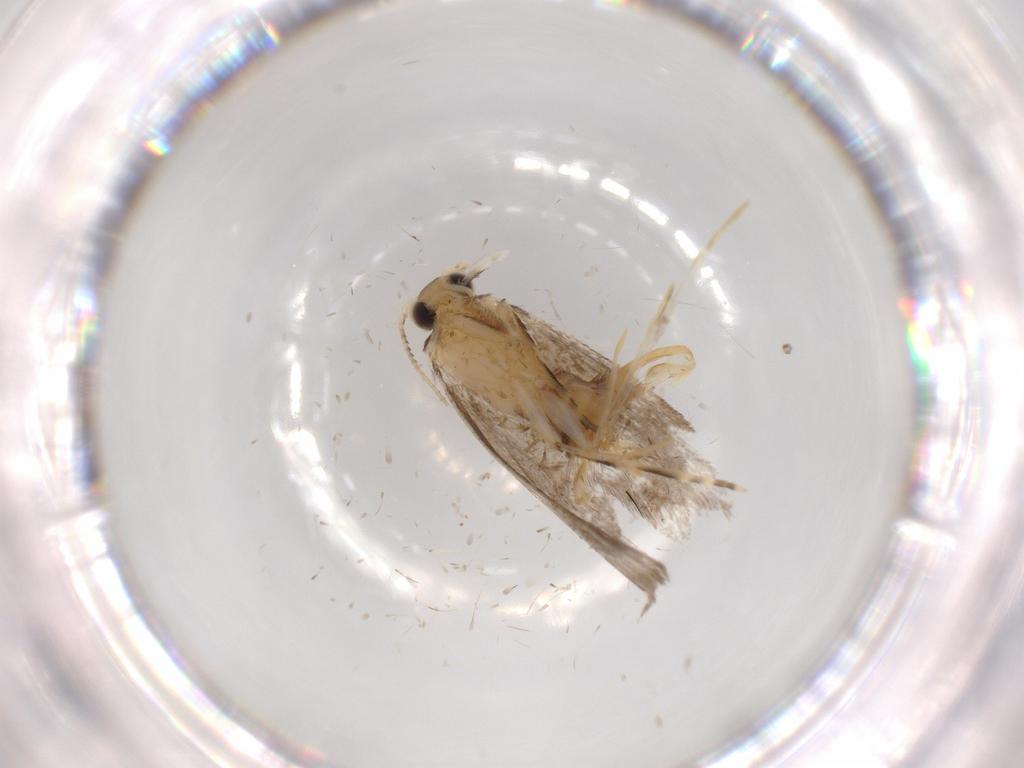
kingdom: Animalia
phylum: Arthropoda
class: Insecta
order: Lepidoptera
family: Tineidae
